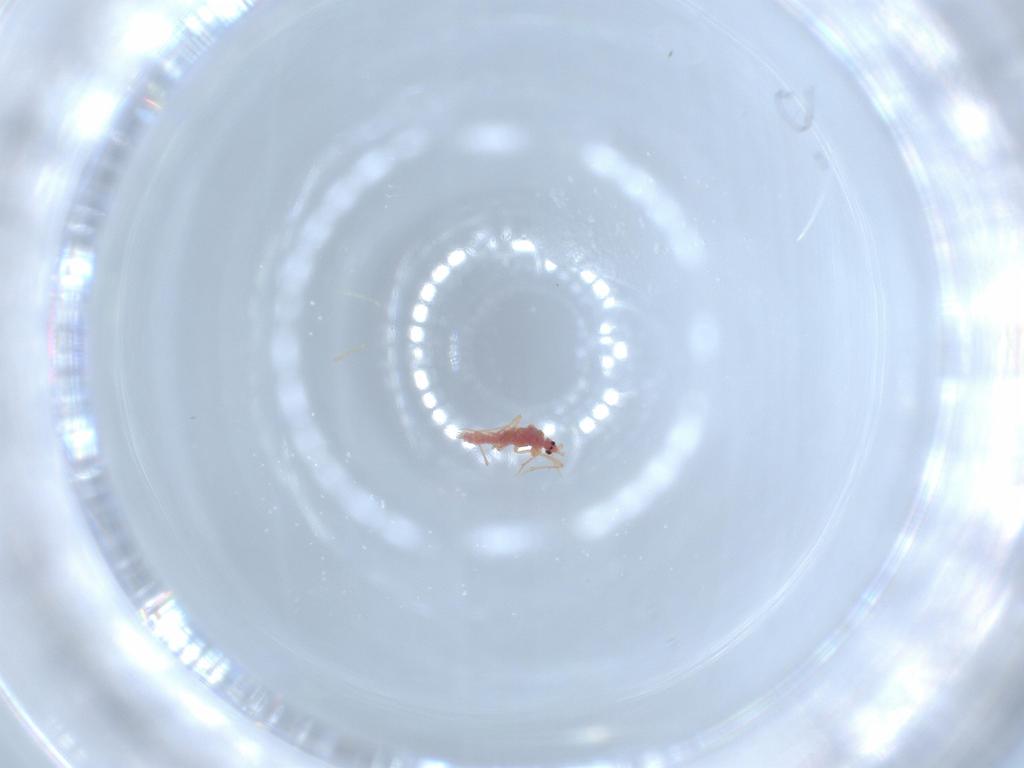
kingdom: Animalia
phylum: Arthropoda
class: Insecta
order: Hemiptera
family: Pseudococcidae
